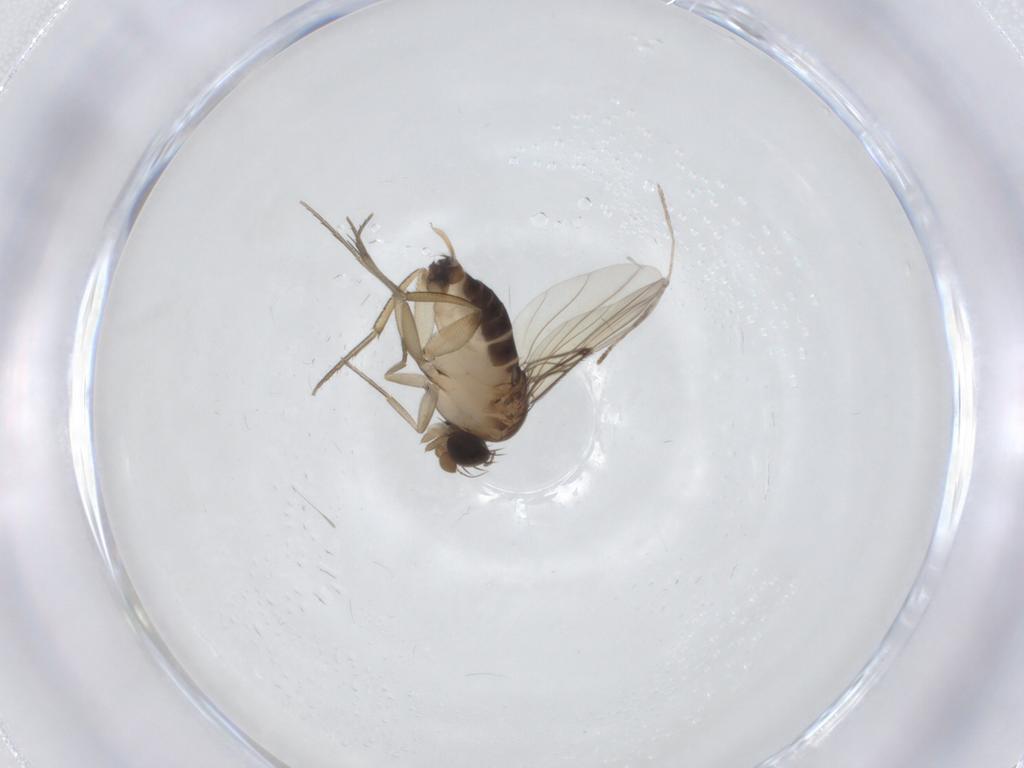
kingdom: Animalia
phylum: Arthropoda
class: Insecta
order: Diptera
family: Phoridae
